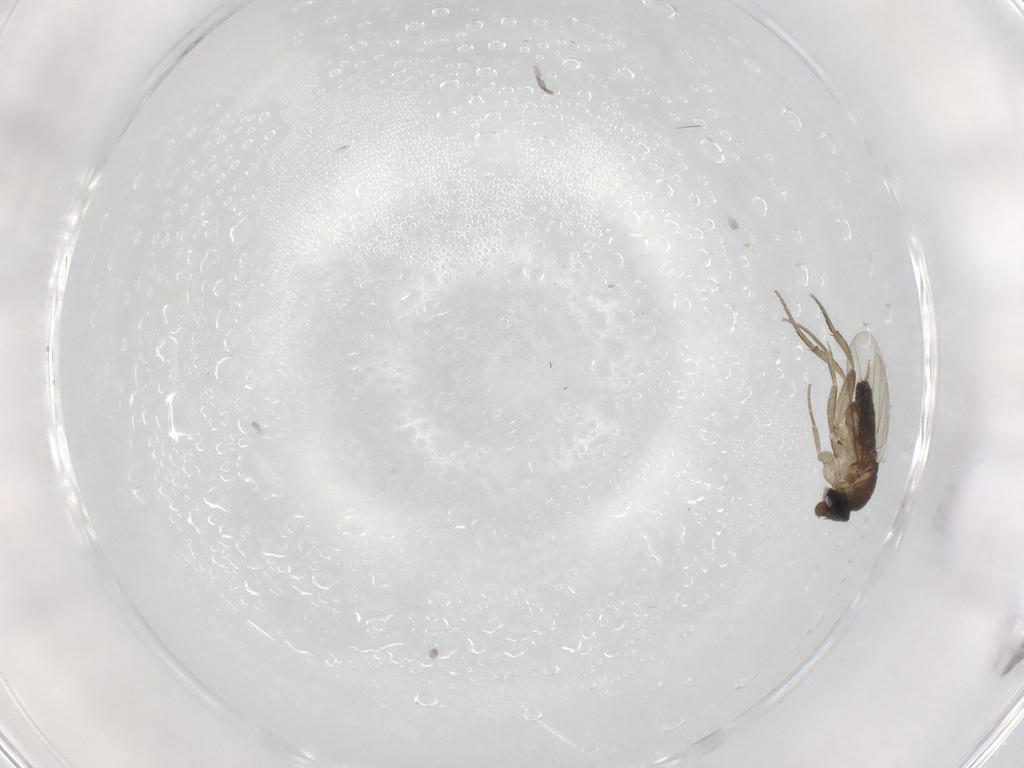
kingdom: Animalia
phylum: Arthropoda
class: Insecta
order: Diptera
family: Phoridae
